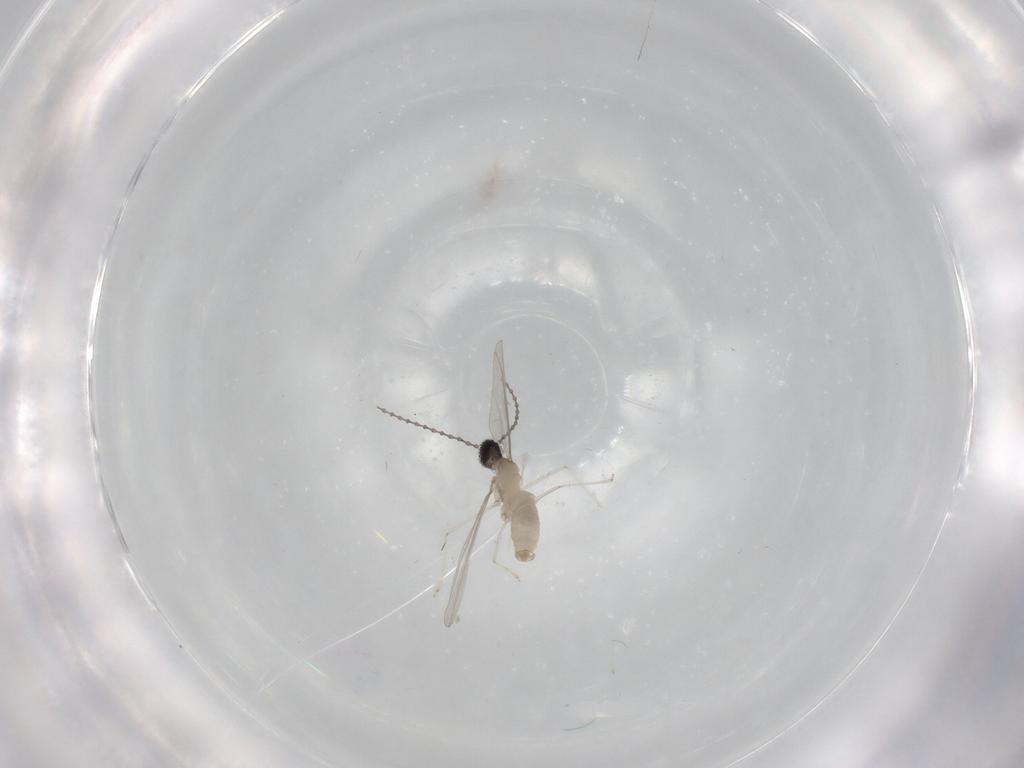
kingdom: Animalia
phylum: Arthropoda
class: Insecta
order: Diptera
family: Cecidomyiidae
